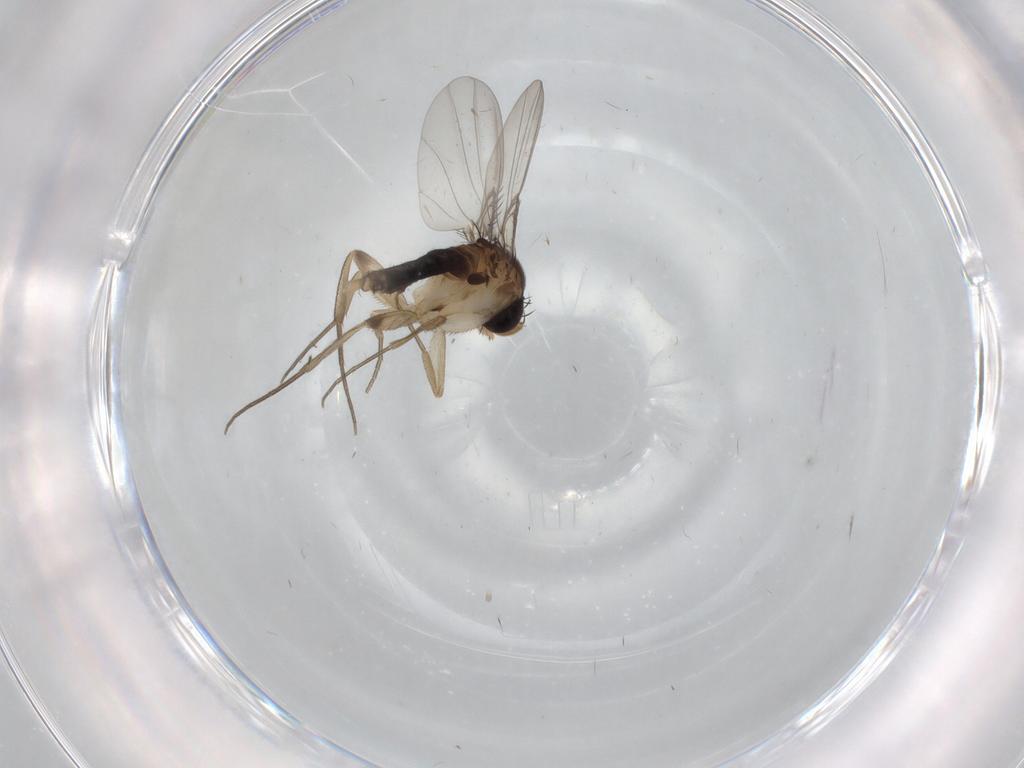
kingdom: Animalia
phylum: Arthropoda
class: Insecta
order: Diptera
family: Phoridae
